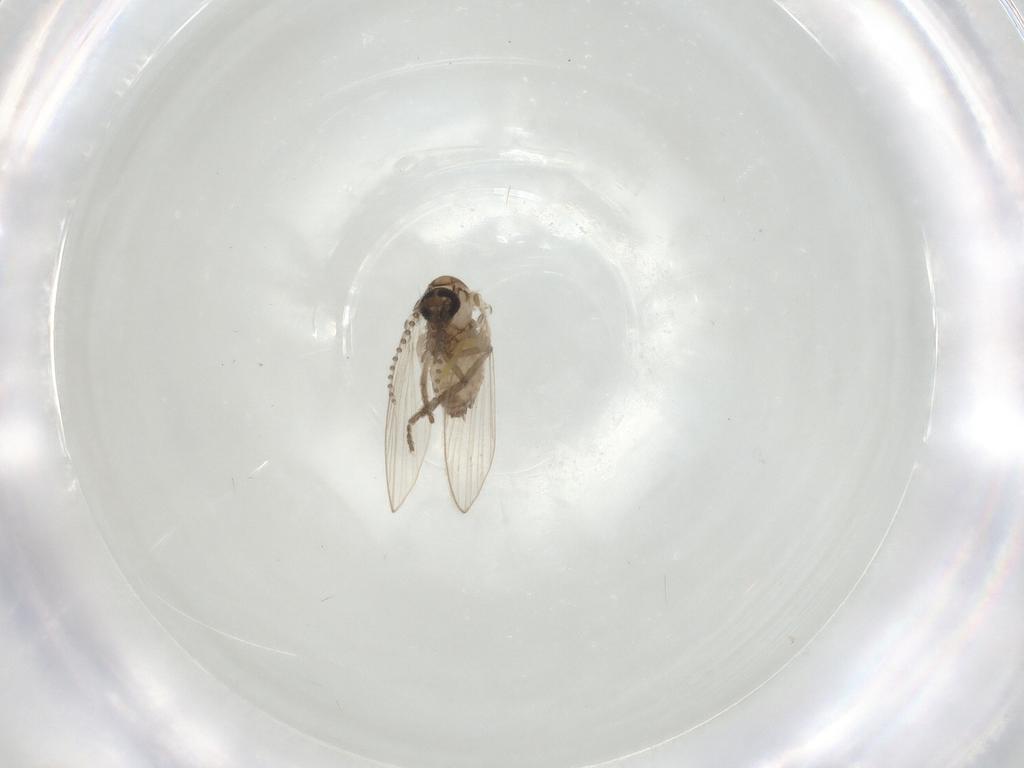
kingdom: Animalia
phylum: Arthropoda
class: Insecta
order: Diptera
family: Psychodidae
